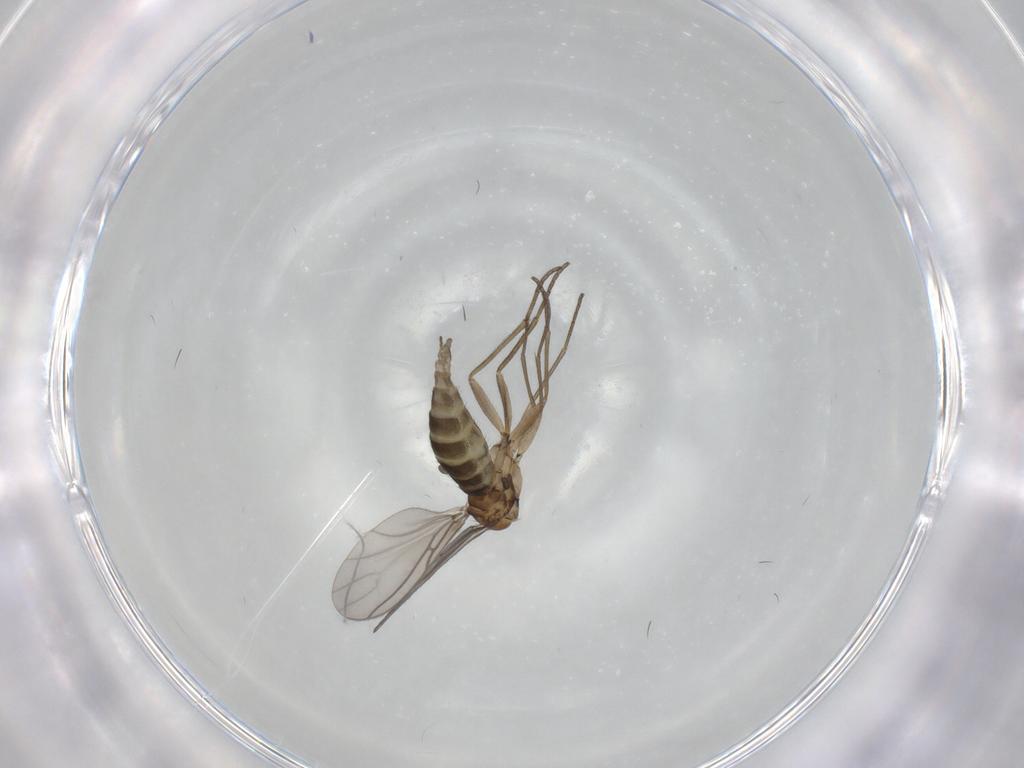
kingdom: Animalia
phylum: Arthropoda
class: Insecta
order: Diptera
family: Sciaridae
